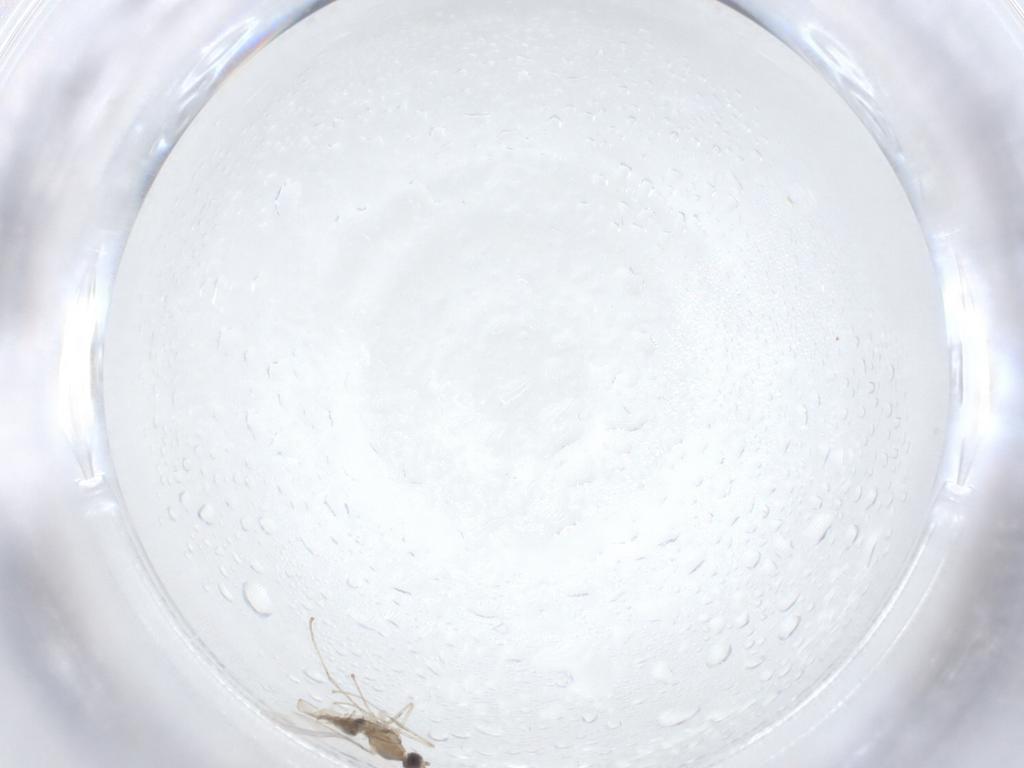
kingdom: Animalia
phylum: Arthropoda
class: Insecta
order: Diptera
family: Cecidomyiidae
